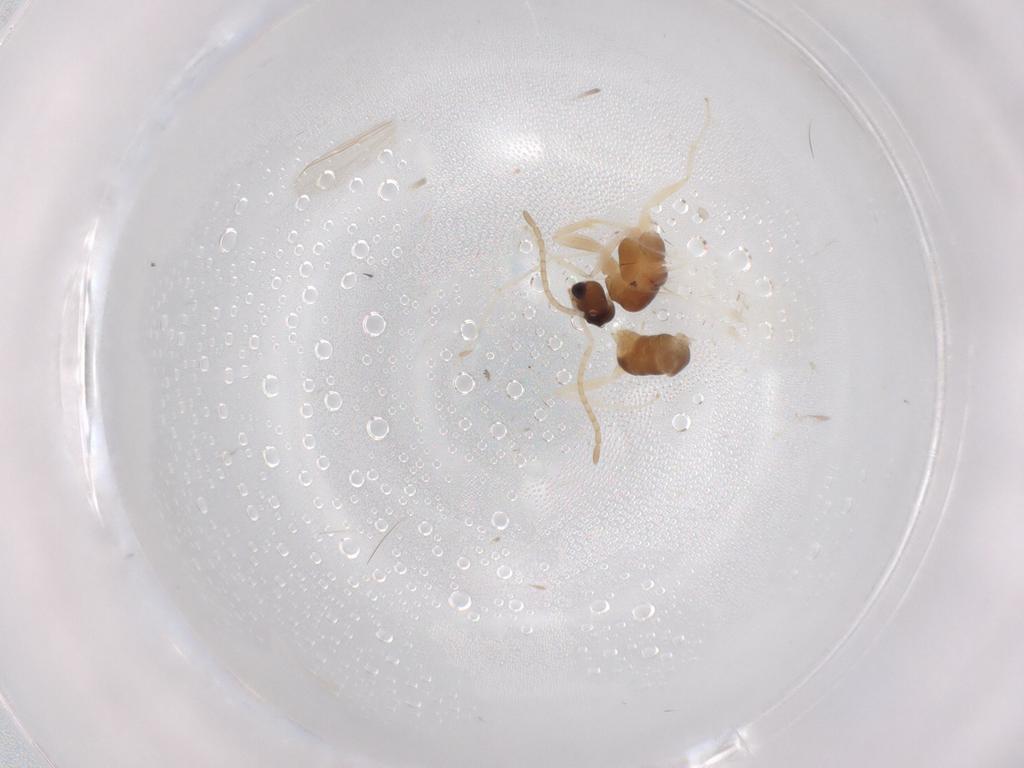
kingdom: Animalia
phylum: Arthropoda
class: Insecta
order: Hymenoptera
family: Formicidae
